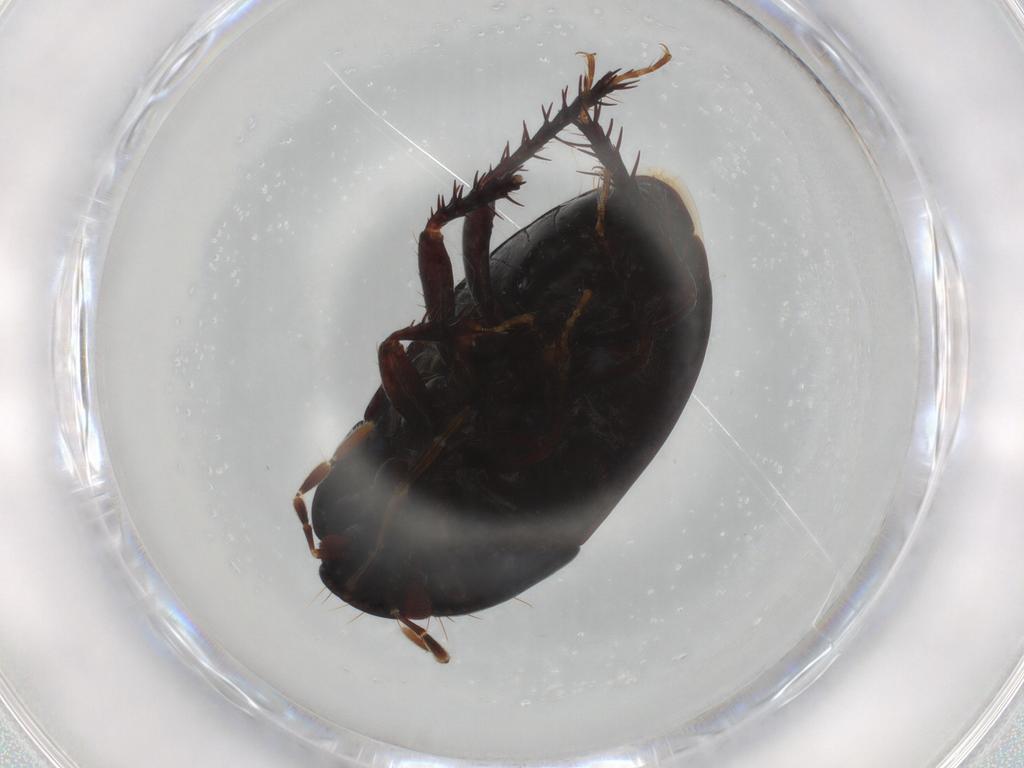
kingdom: Animalia
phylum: Arthropoda
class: Insecta
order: Hemiptera
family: Cydnidae
